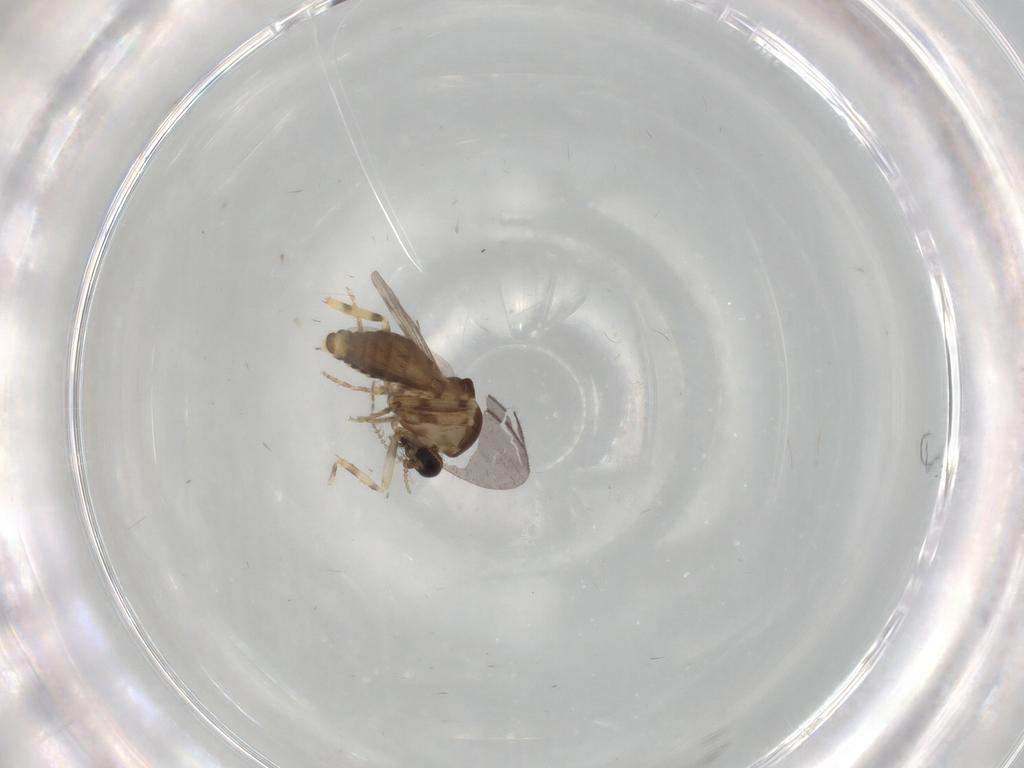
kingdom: Animalia
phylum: Arthropoda
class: Insecta
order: Diptera
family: Ceratopogonidae
